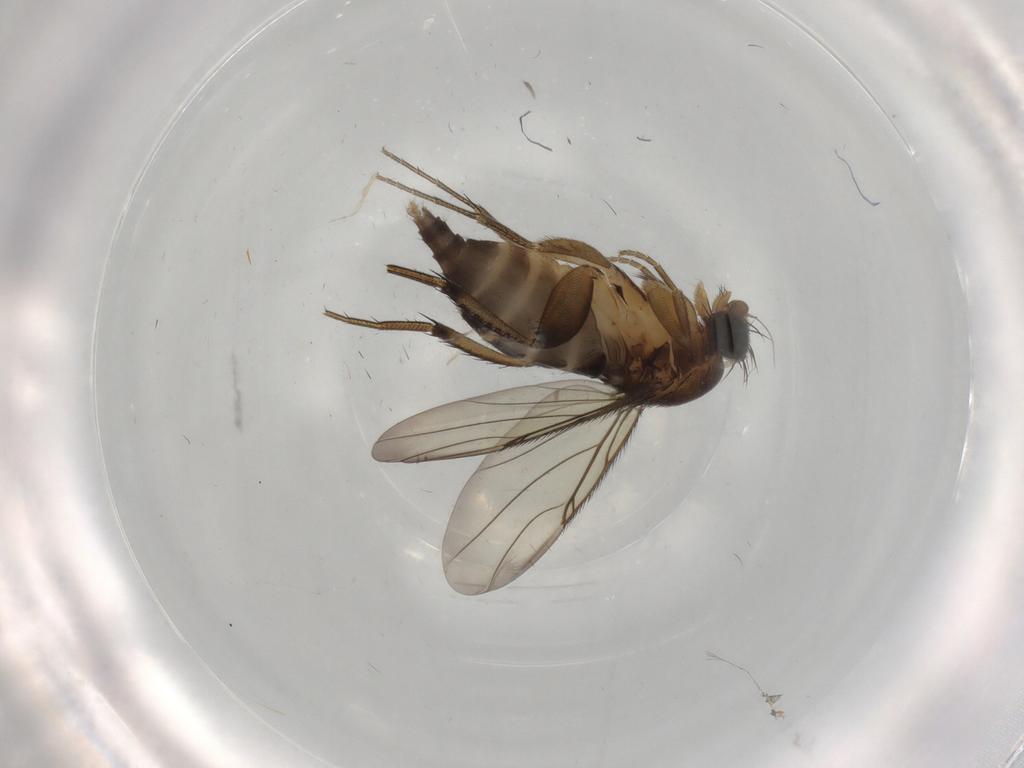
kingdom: Animalia
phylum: Arthropoda
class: Insecta
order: Diptera
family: Phoridae
